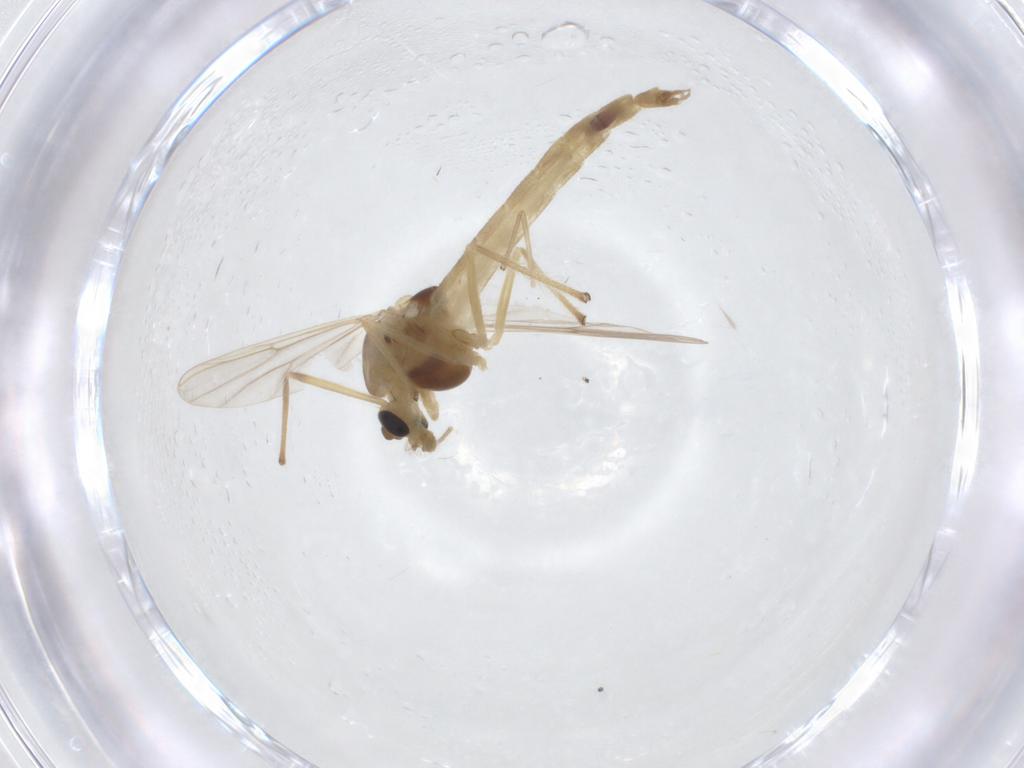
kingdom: Animalia
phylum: Arthropoda
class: Insecta
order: Diptera
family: Chironomidae
